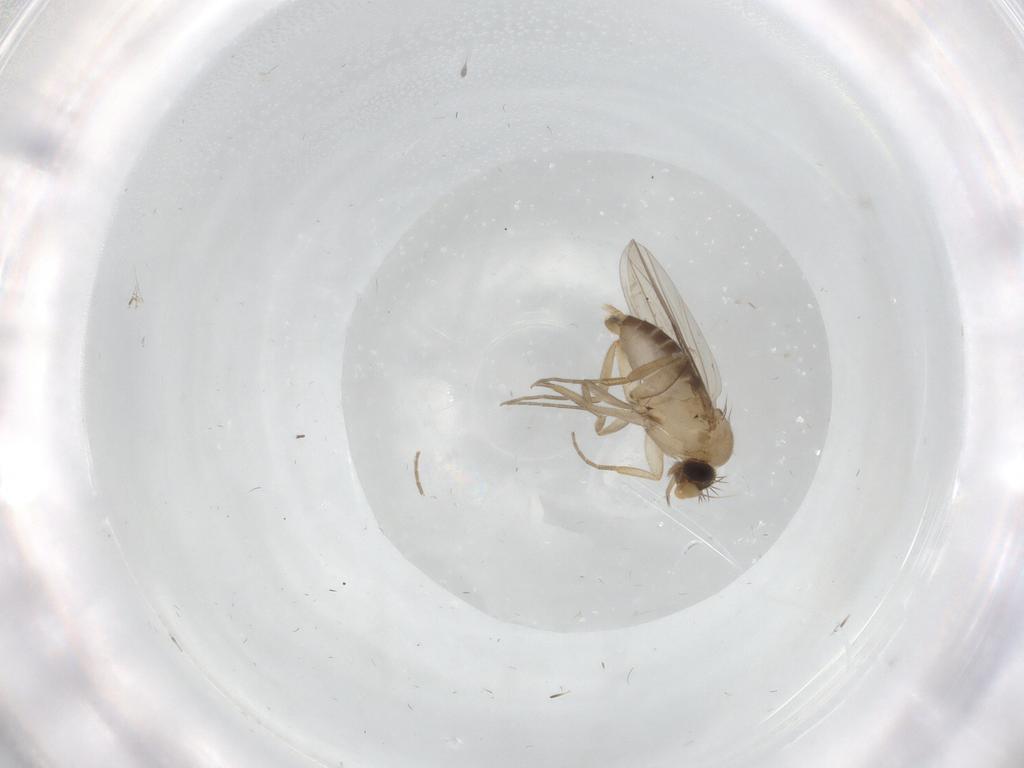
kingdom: Animalia
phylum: Arthropoda
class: Insecta
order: Diptera
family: Phoridae
